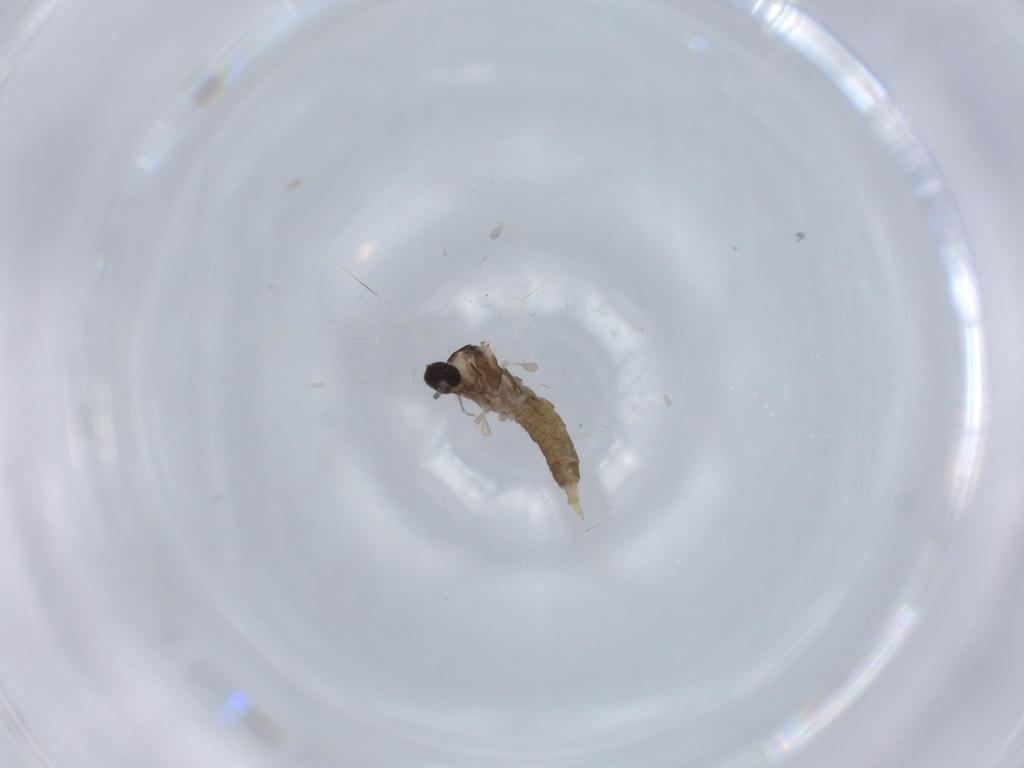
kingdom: Animalia
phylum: Arthropoda
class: Insecta
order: Diptera
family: Cecidomyiidae
